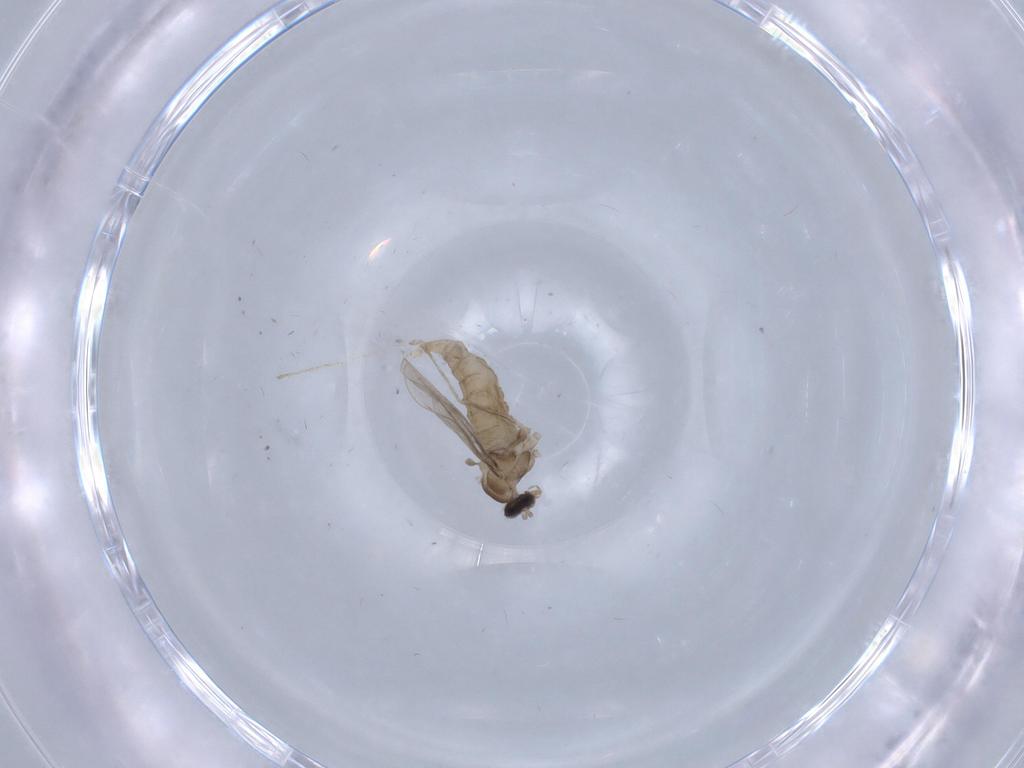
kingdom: Animalia
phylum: Arthropoda
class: Insecta
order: Diptera
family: Cecidomyiidae
